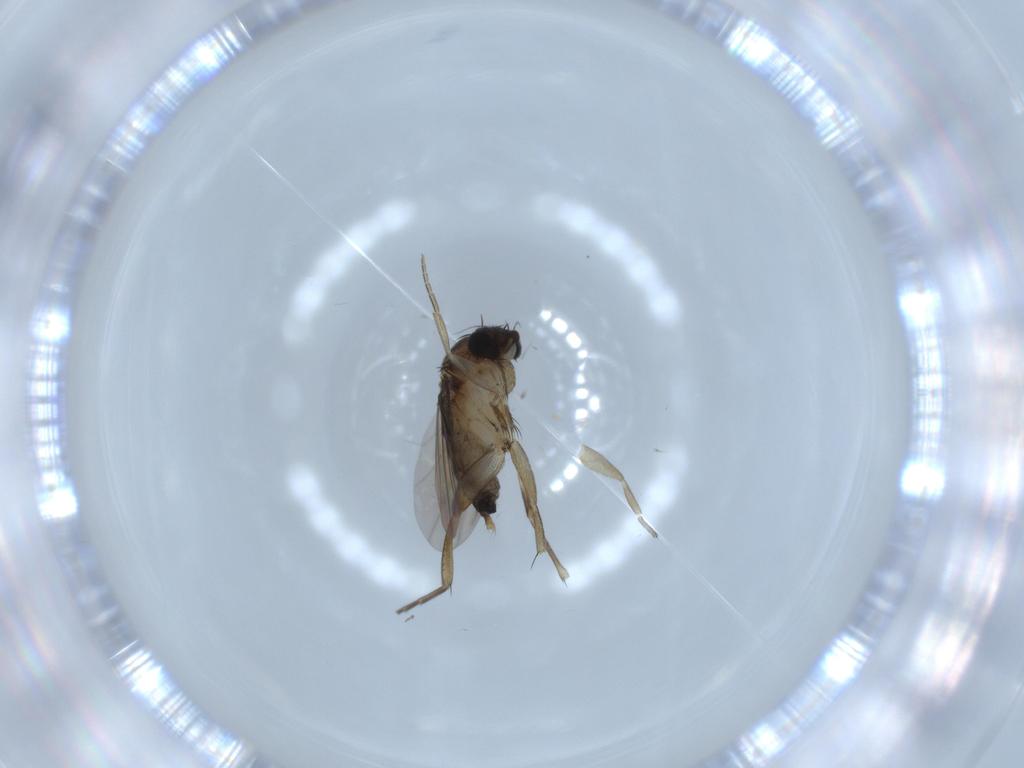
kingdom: Animalia
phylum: Arthropoda
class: Insecta
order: Diptera
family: Phoridae
